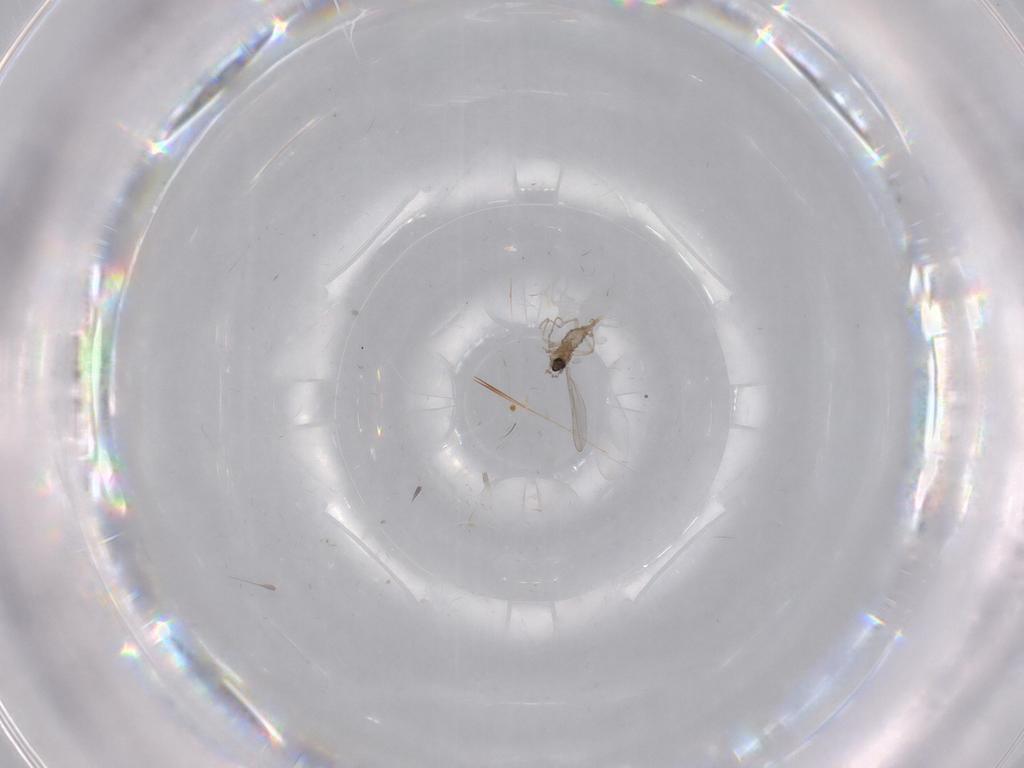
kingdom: Animalia
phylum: Arthropoda
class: Insecta
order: Diptera
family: Cecidomyiidae
